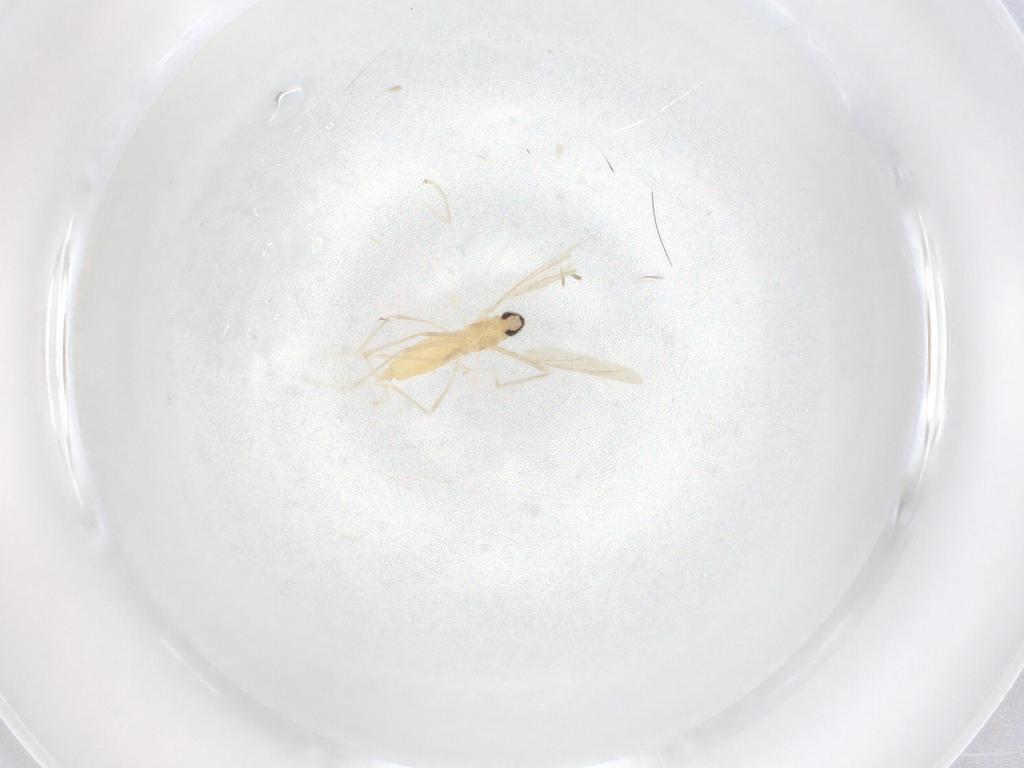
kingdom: Animalia
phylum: Arthropoda
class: Insecta
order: Diptera
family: Cecidomyiidae
